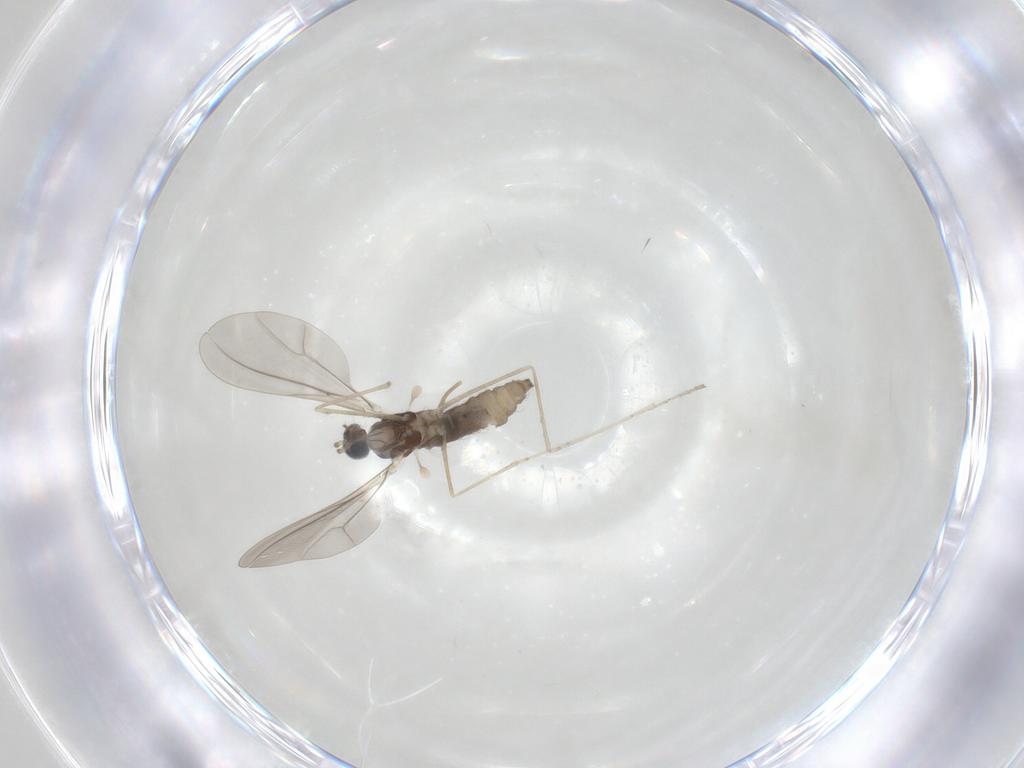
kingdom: Animalia
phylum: Arthropoda
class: Insecta
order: Diptera
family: Cecidomyiidae
